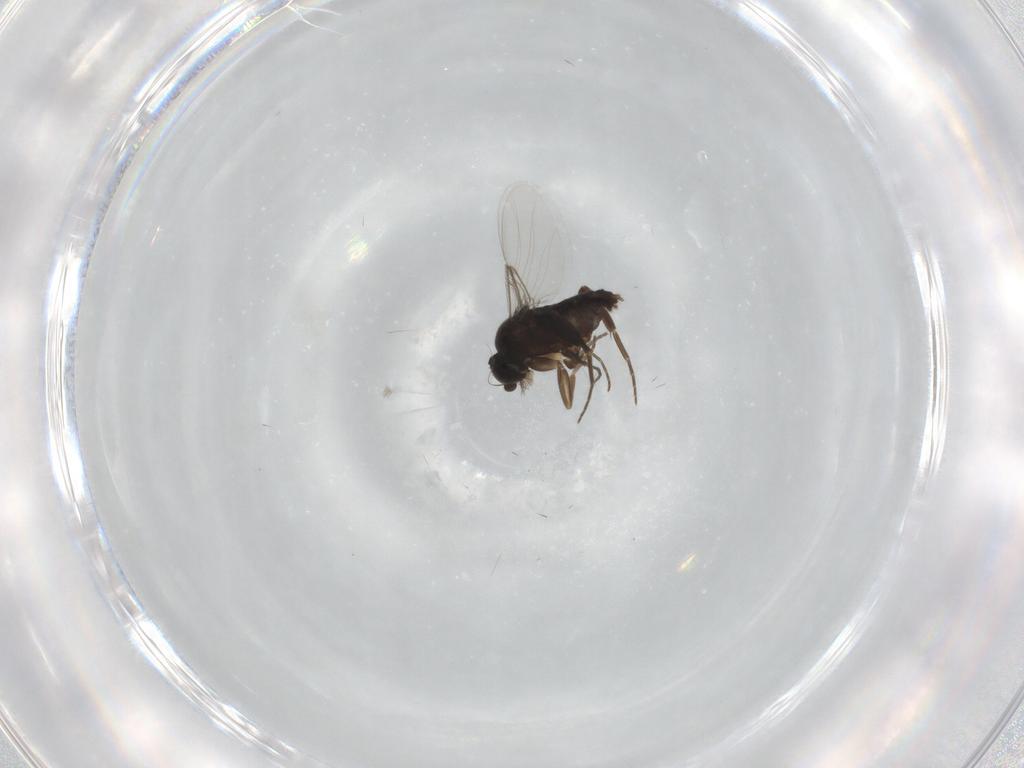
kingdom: Animalia
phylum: Arthropoda
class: Insecta
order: Diptera
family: Phoridae
